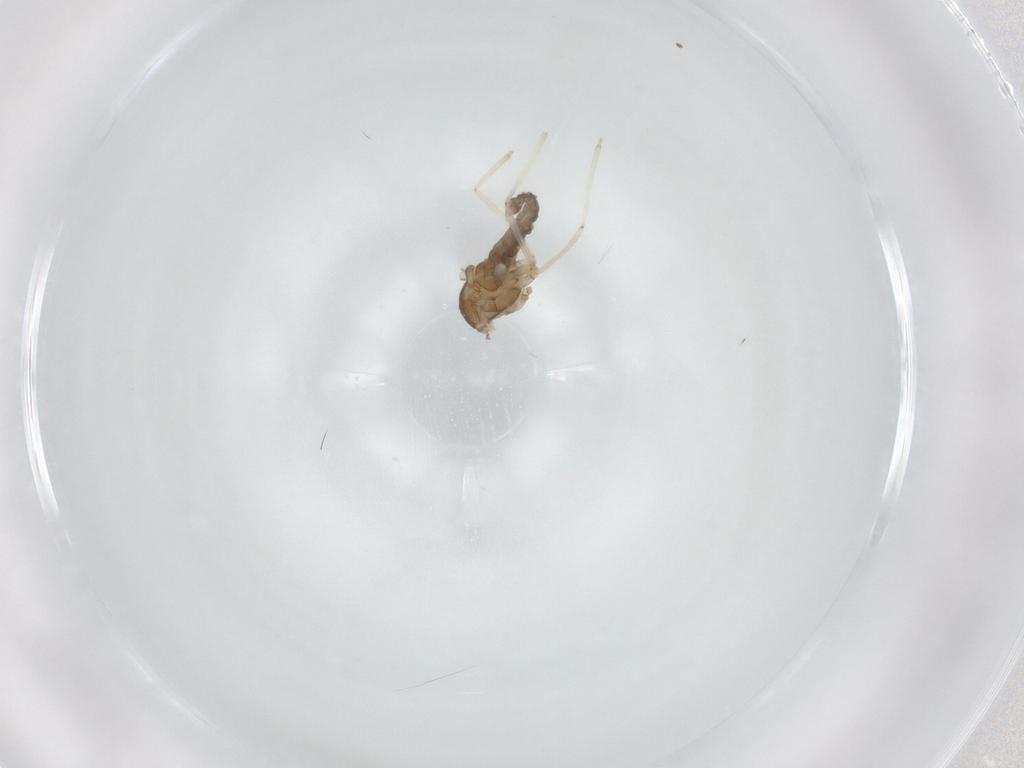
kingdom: Animalia
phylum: Arthropoda
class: Insecta
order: Diptera
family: Cecidomyiidae
